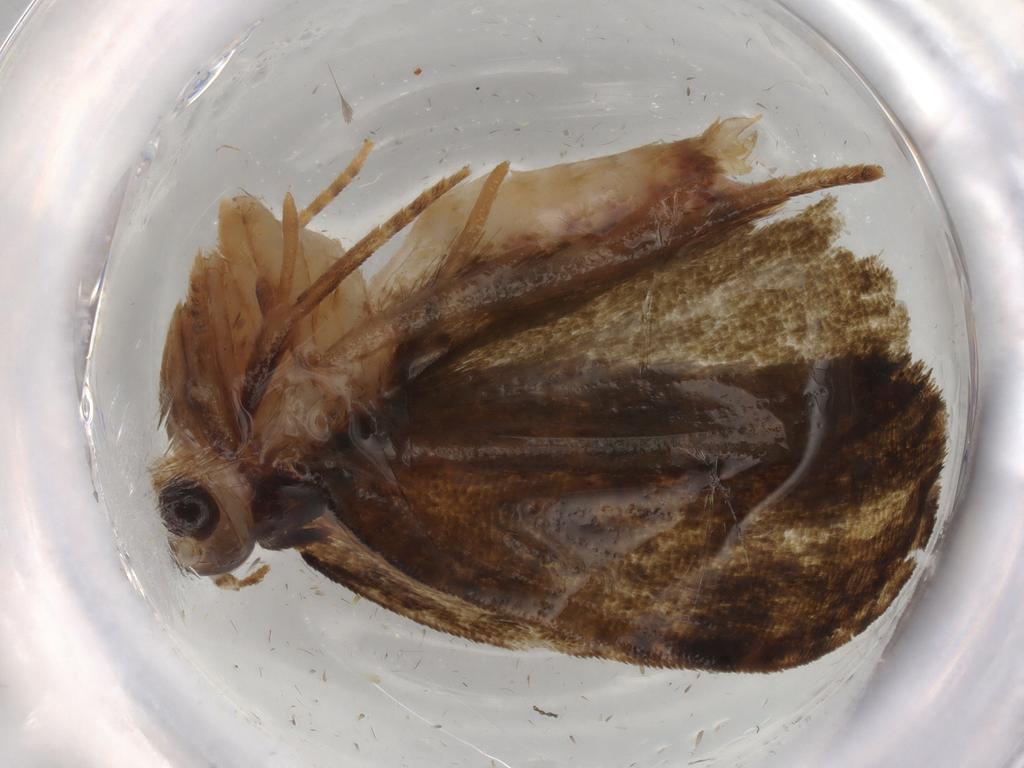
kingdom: Animalia
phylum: Arthropoda
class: Insecta
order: Lepidoptera
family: Geometridae
